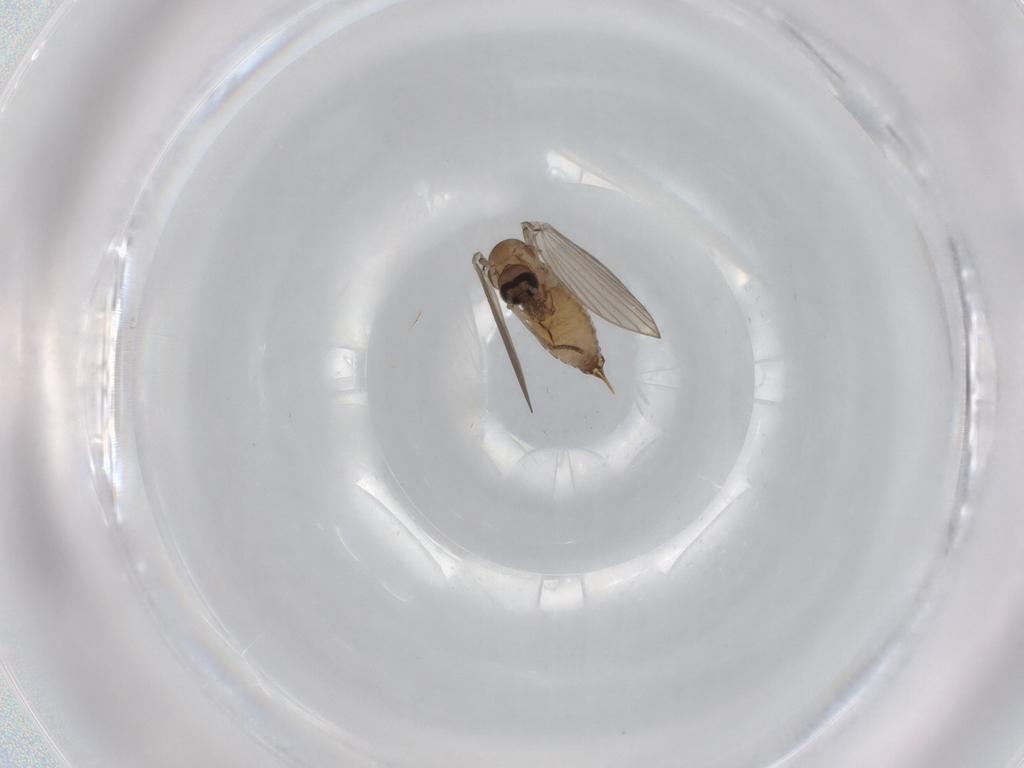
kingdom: Animalia
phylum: Arthropoda
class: Insecta
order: Diptera
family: Psychodidae
